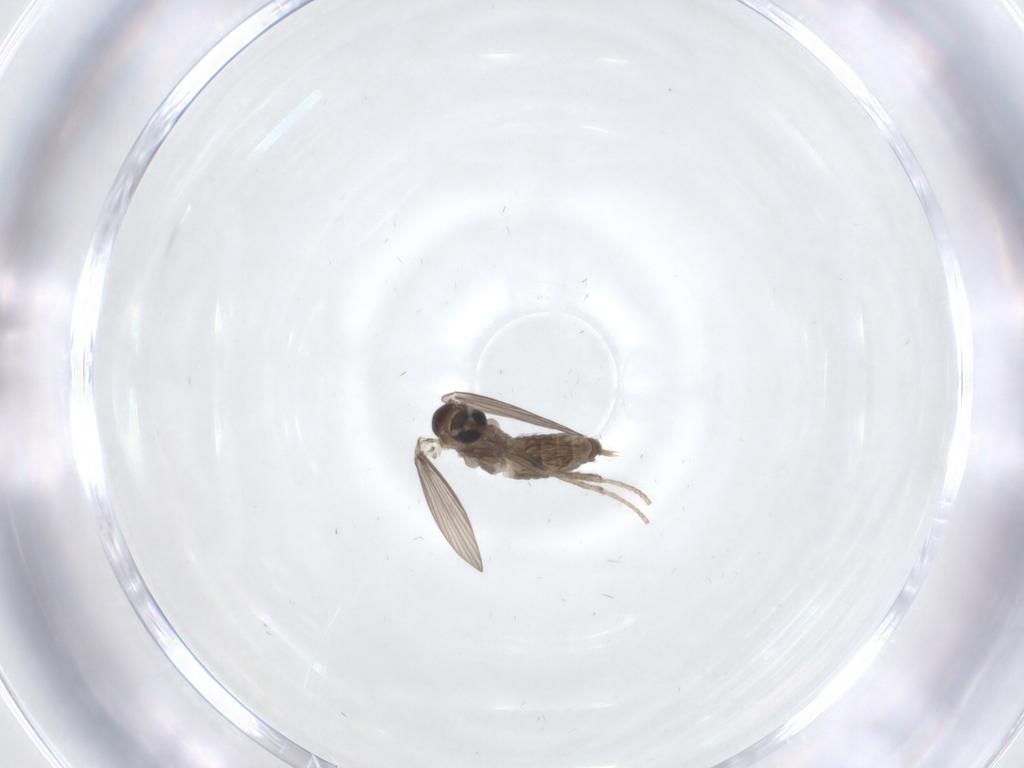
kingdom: Animalia
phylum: Arthropoda
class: Insecta
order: Diptera
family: Psychodidae
